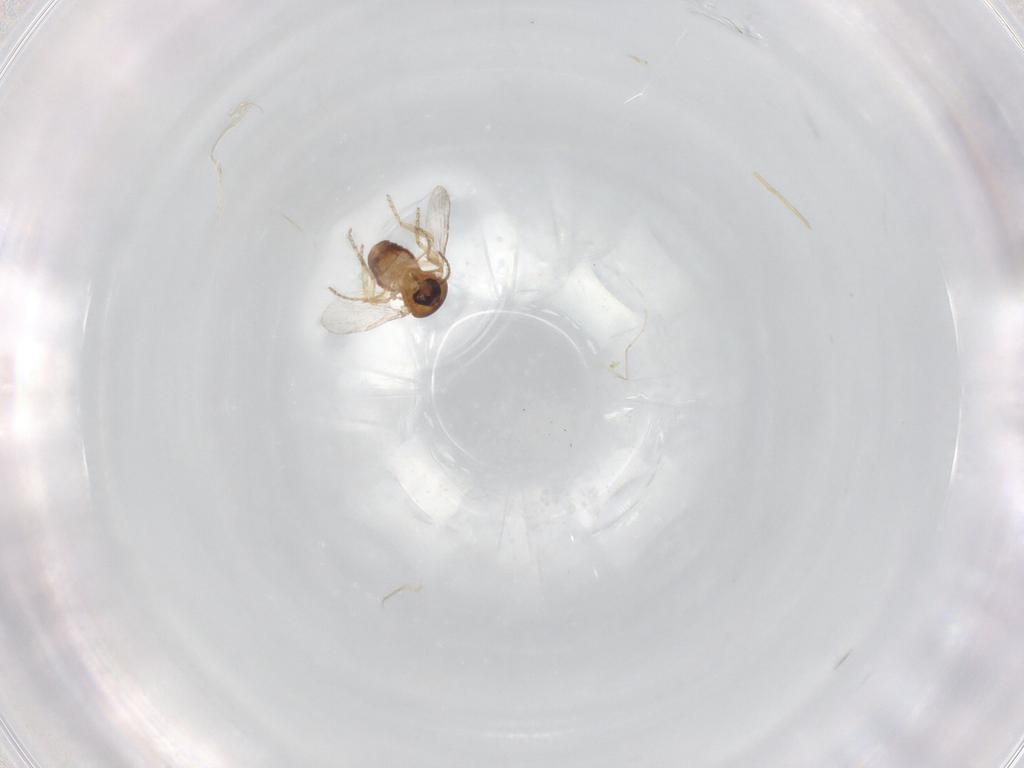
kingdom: Animalia
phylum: Arthropoda
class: Insecta
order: Diptera
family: Ceratopogonidae
